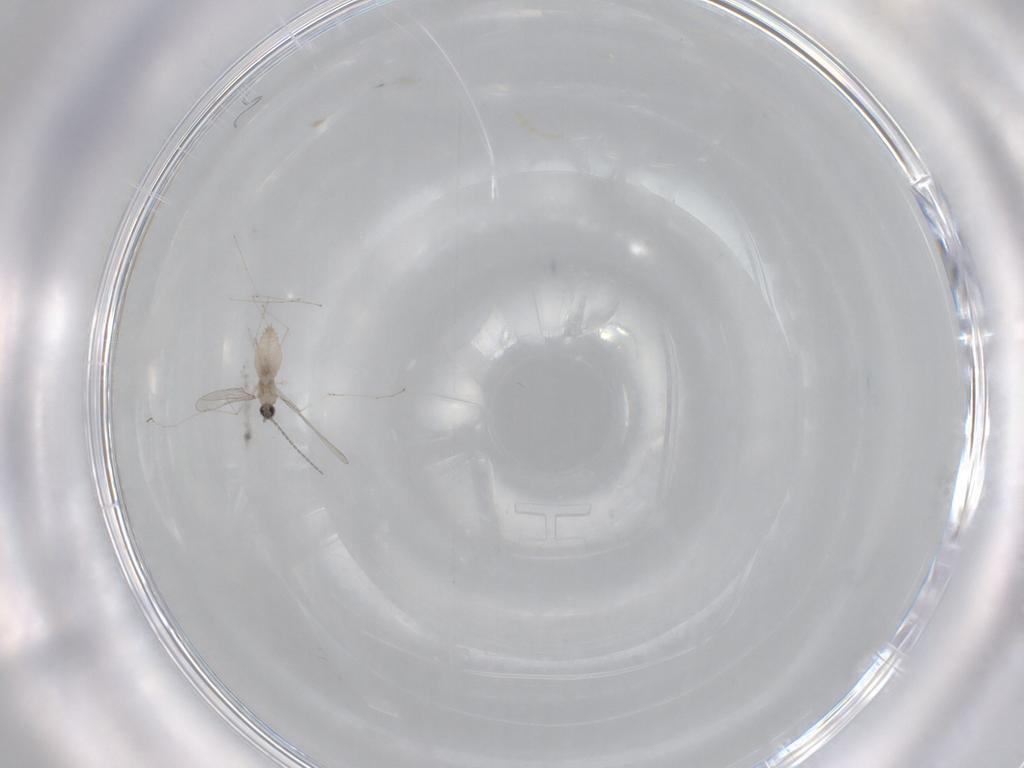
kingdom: Animalia
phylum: Arthropoda
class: Insecta
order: Diptera
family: Cecidomyiidae
